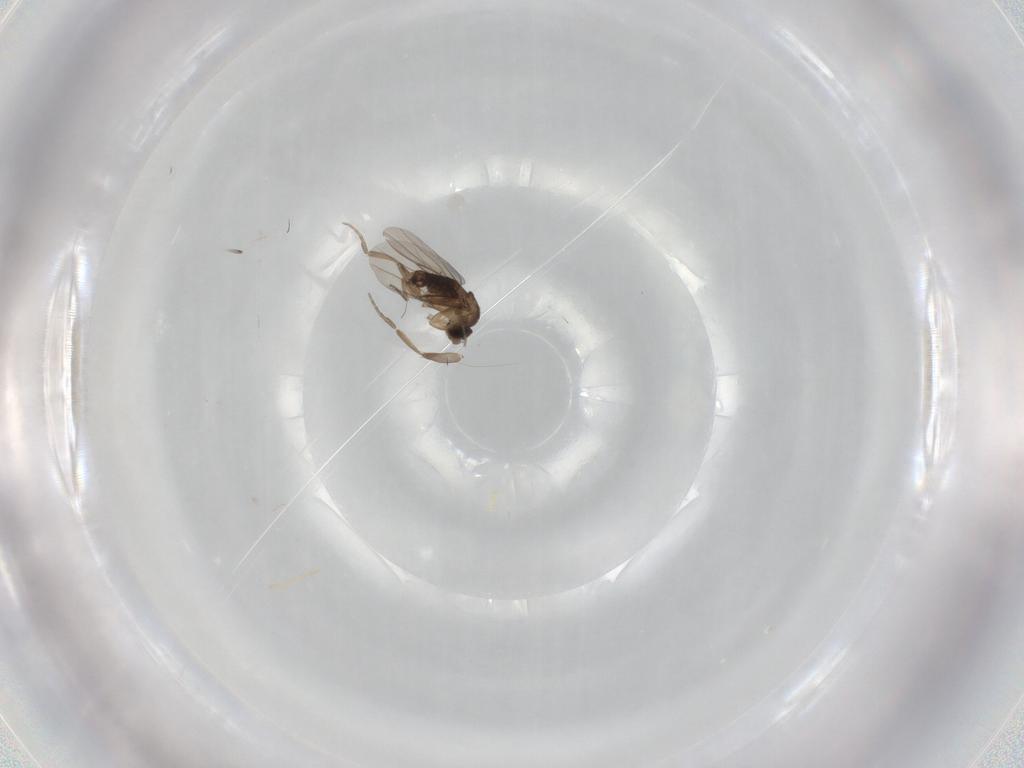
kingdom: Animalia
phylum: Arthropoda
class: Insecta
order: Diptera
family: Phoridae
